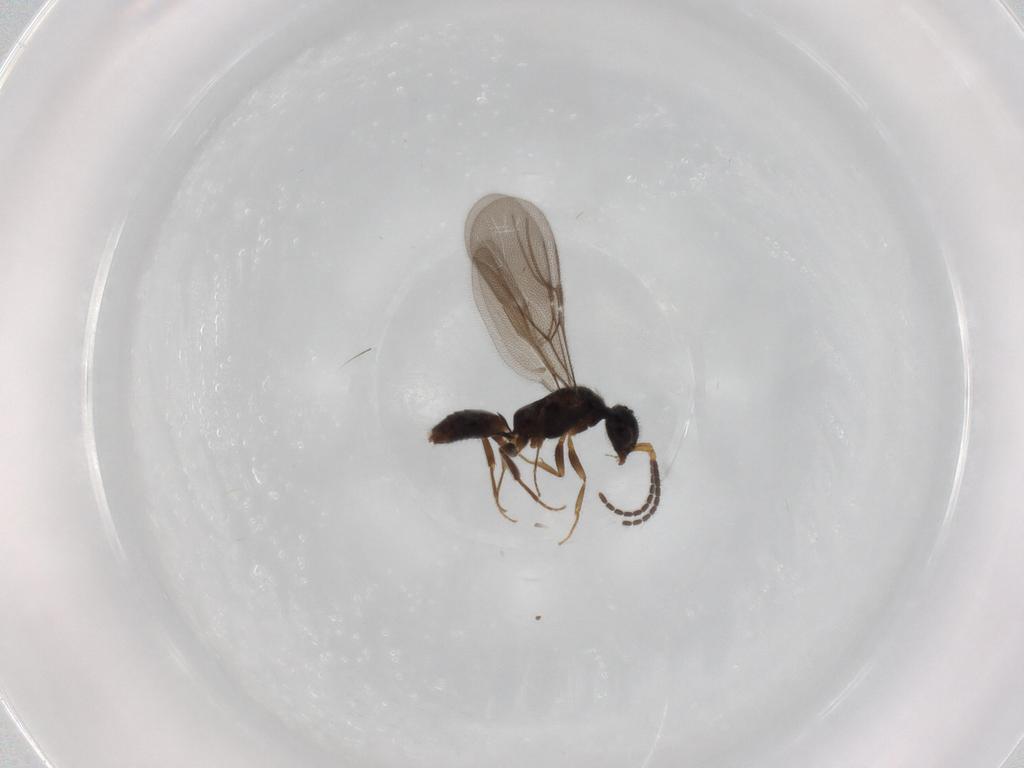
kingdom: Animalia
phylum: Arthropoda
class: Insecta
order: Hymenoptera
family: Bethylidae
